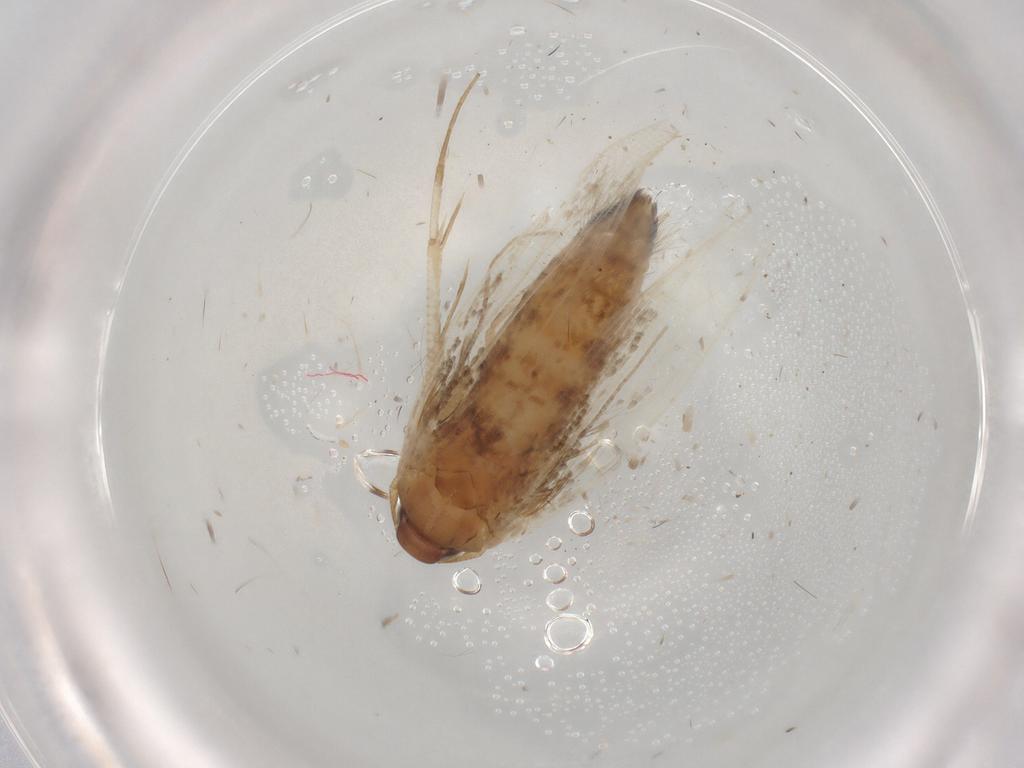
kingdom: Animalia
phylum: Arthropoda
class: Insecta
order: Lepidoptera
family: Cosmopterigidae
